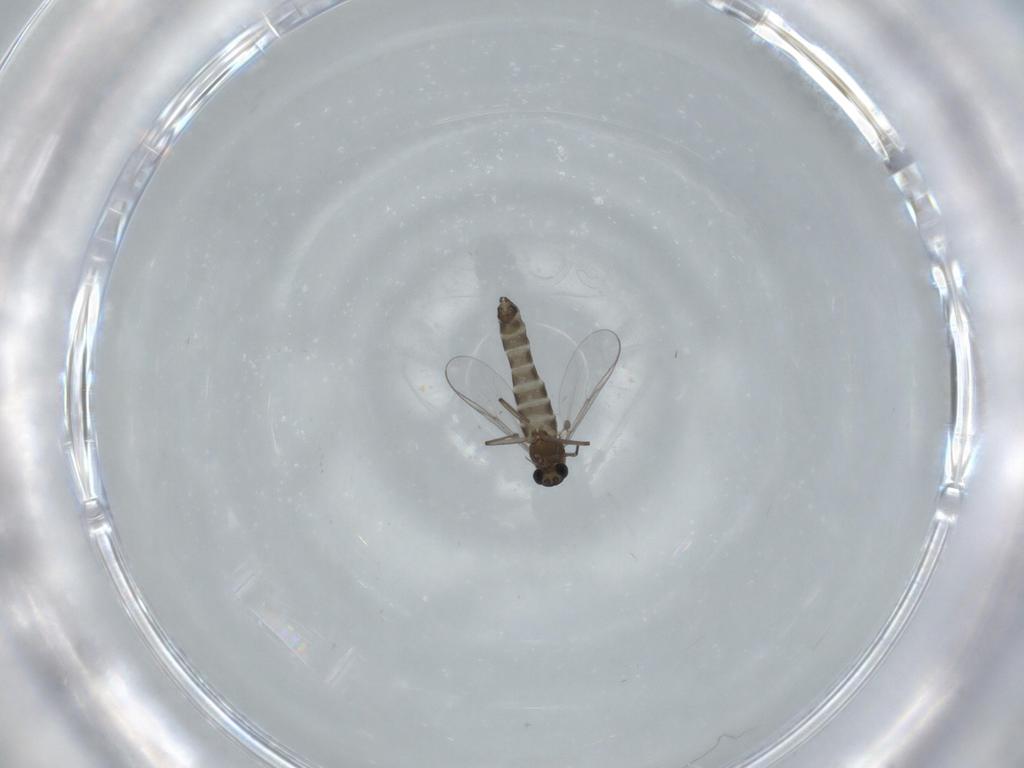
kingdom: Animalia
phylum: Arthropoda
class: Insecta
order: Diptera
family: Chironomidae
